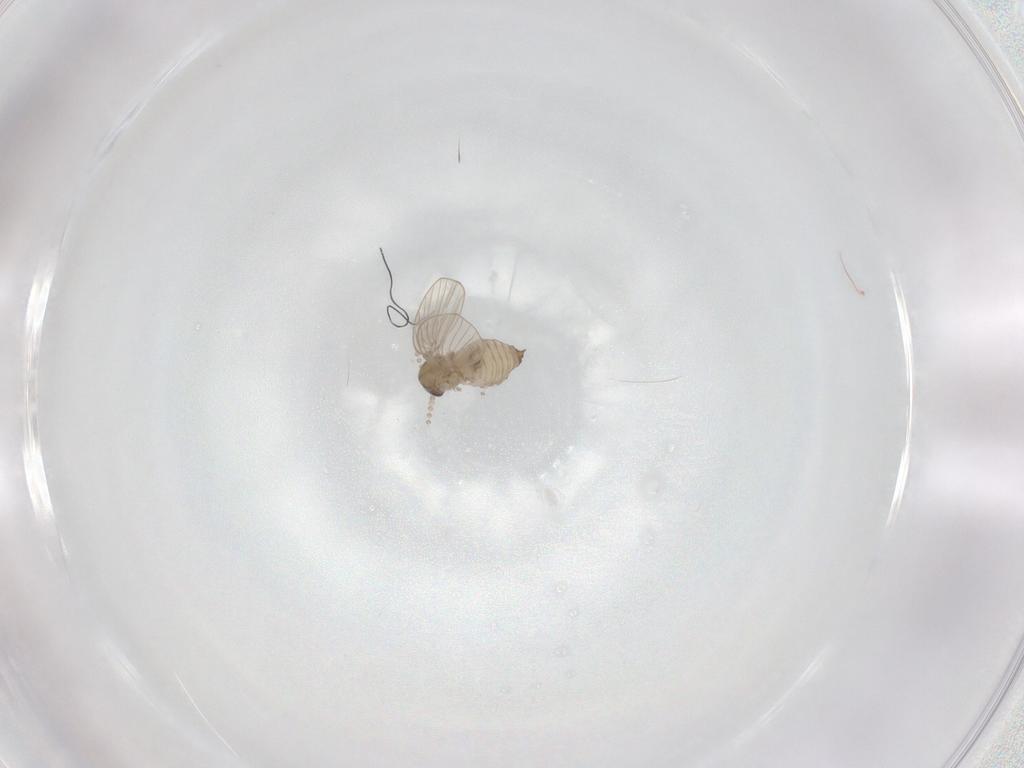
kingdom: Animalia
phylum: Arthropoda
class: Insecta
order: Diptera
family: Psychodidae
